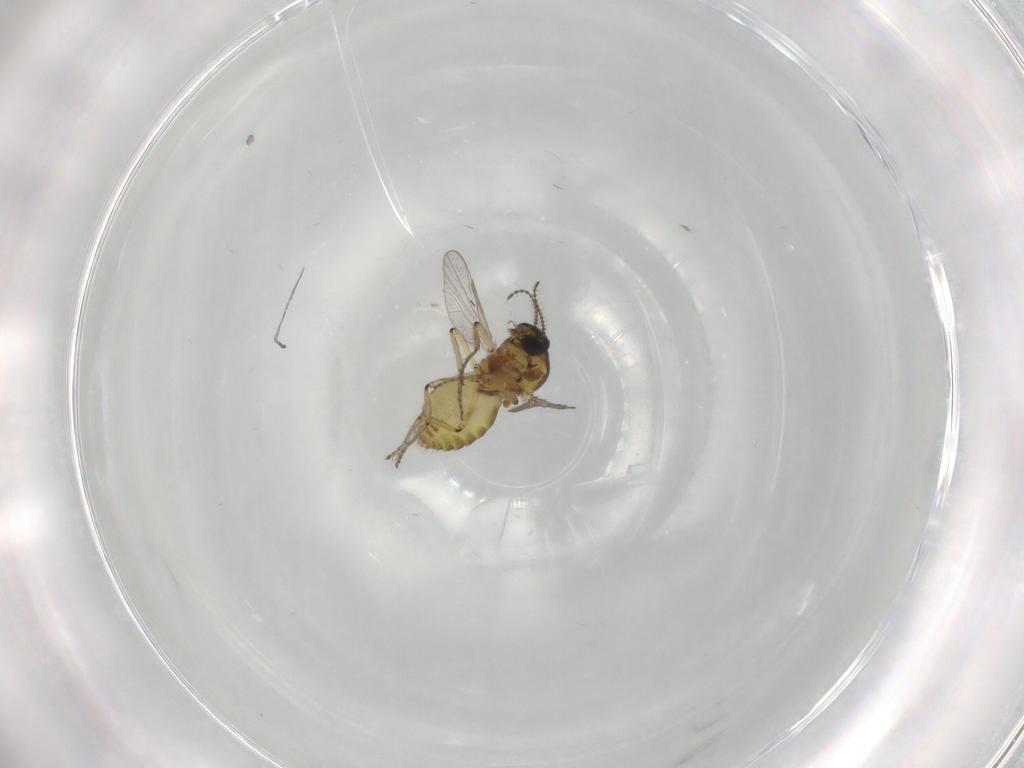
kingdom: Animalia
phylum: Arthropoda
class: Insecta
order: Diptera
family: Ceratopogonidae
